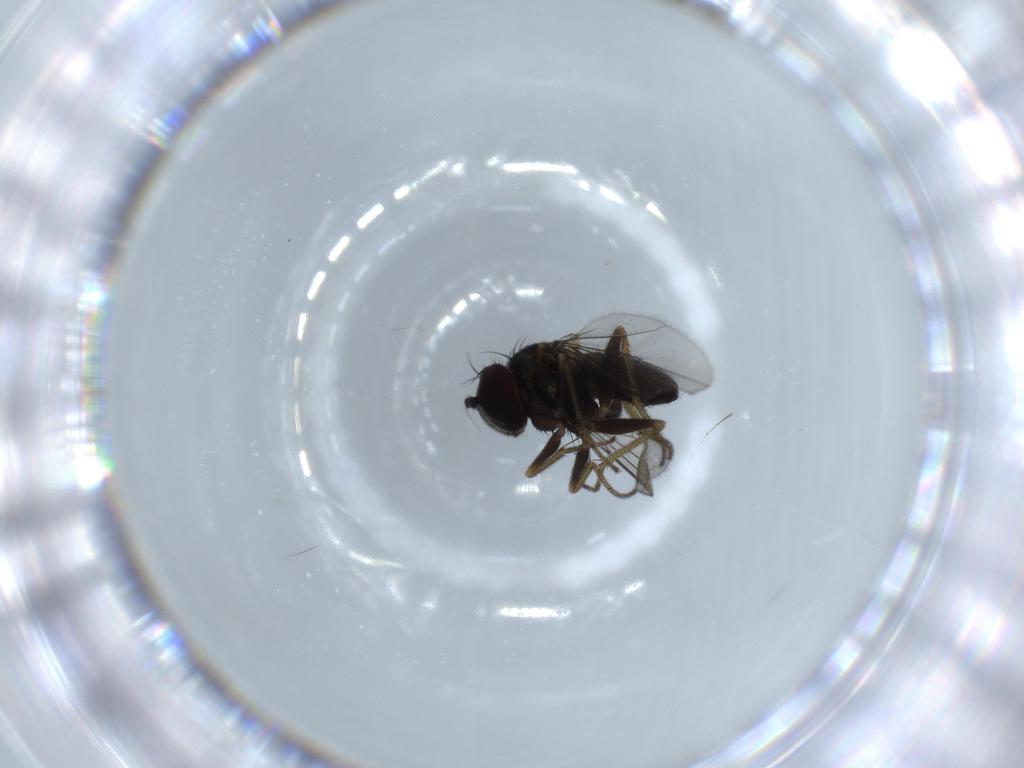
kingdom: Animalia
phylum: Arthropoda
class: Insecta
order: Diptera
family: Dolichopodidae
